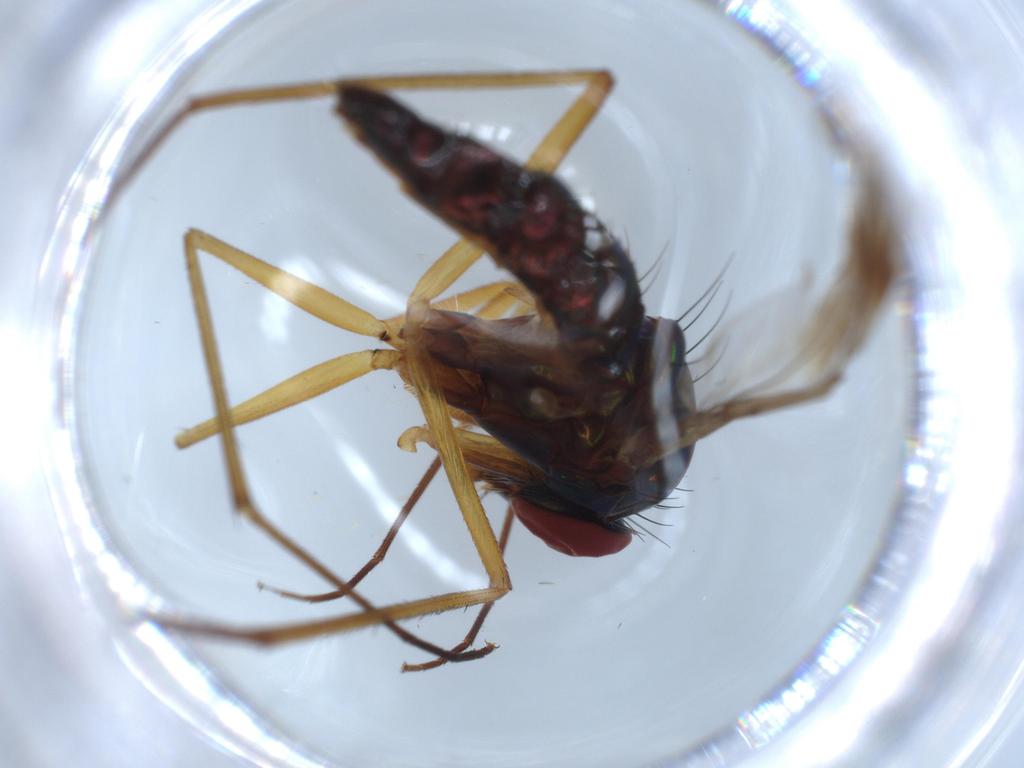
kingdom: Animalia
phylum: Arthropoda
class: Insecta
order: Diptera
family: Dolichopodidae
